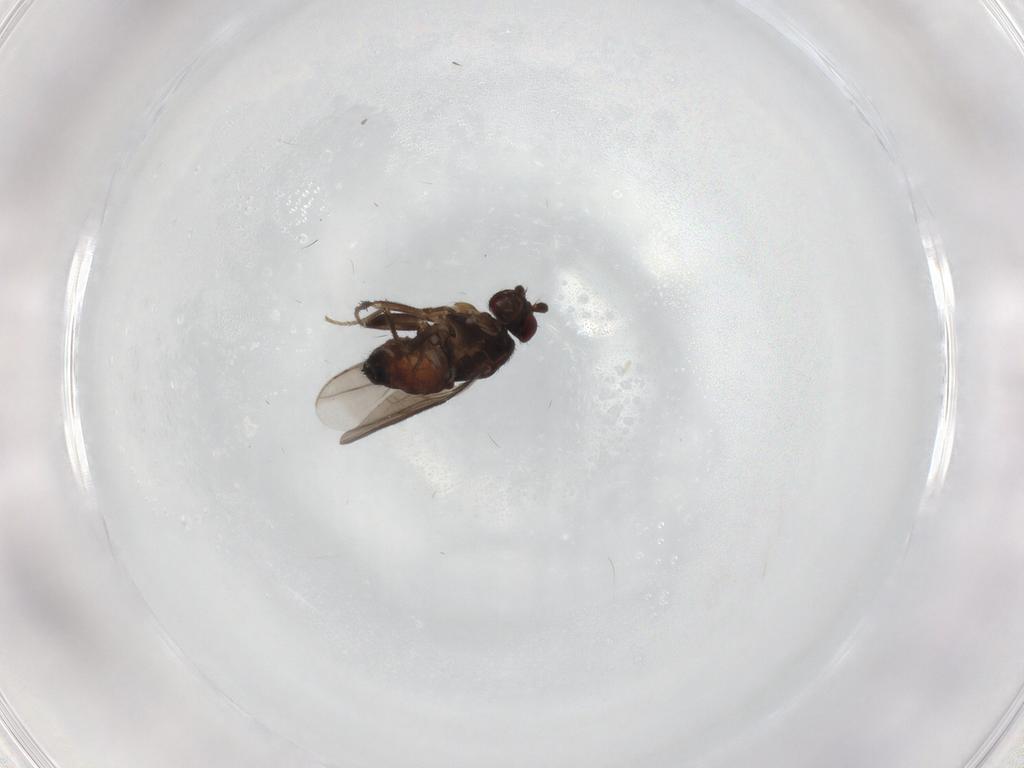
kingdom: Animalia
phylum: Arthropoda
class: Insecta
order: Diptera
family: Sphaeroceridae
